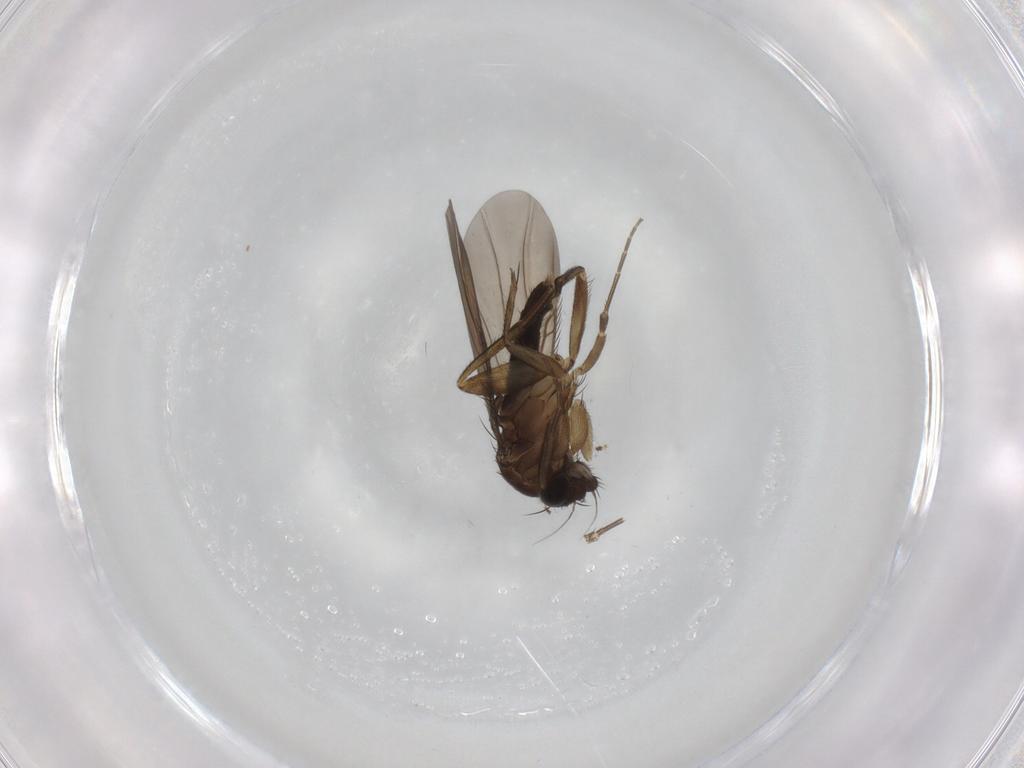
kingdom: Animalia
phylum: Arthropoda
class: Insecta
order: Diptera
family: Phoridae
